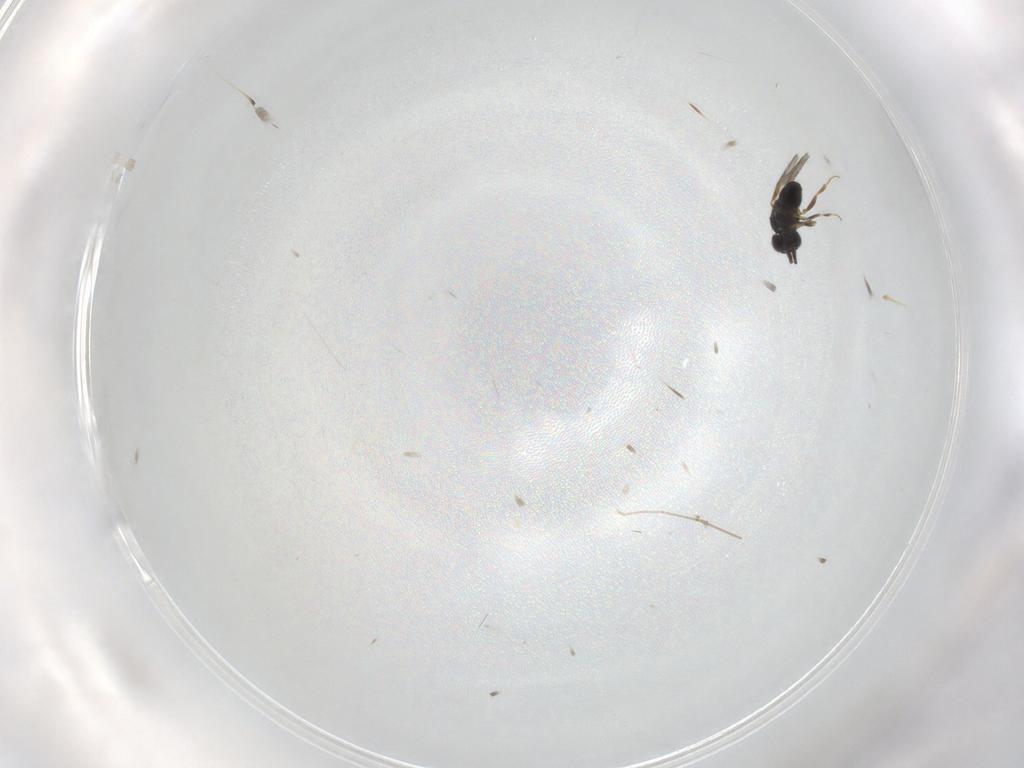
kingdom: Animalia
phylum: Arthropoda
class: Insecta
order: Hymenoptera
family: Ceraphronidae
